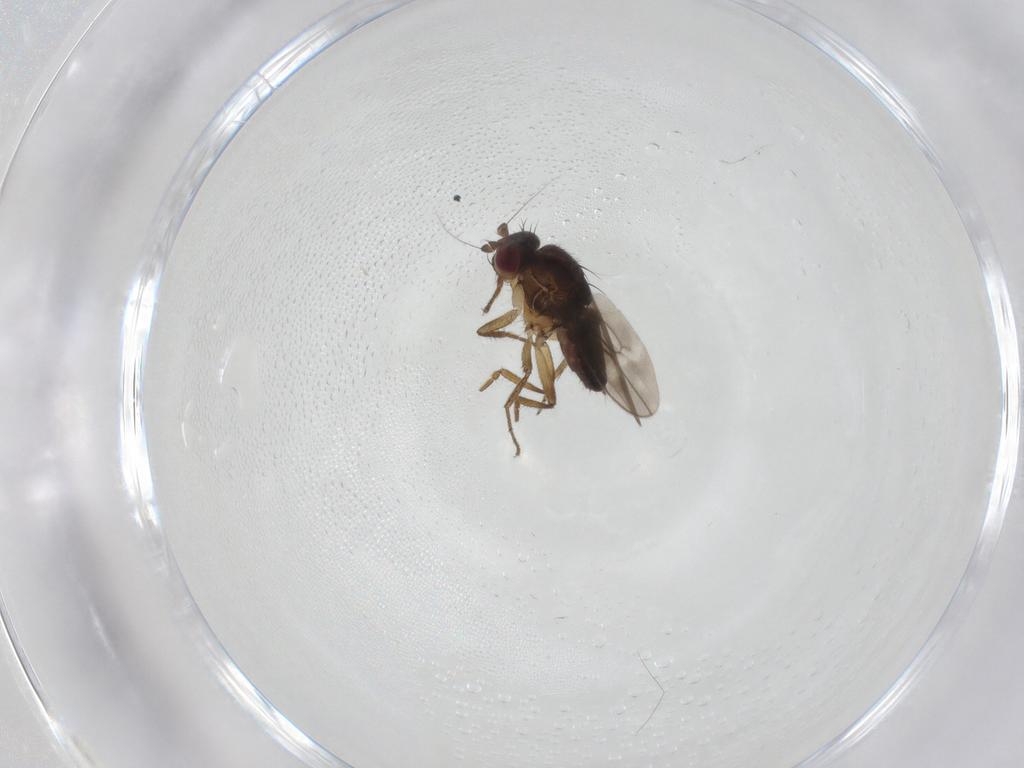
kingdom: Animalia
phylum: Arthropoda
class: Insecta
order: Diptera
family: Sphaeroceridae
